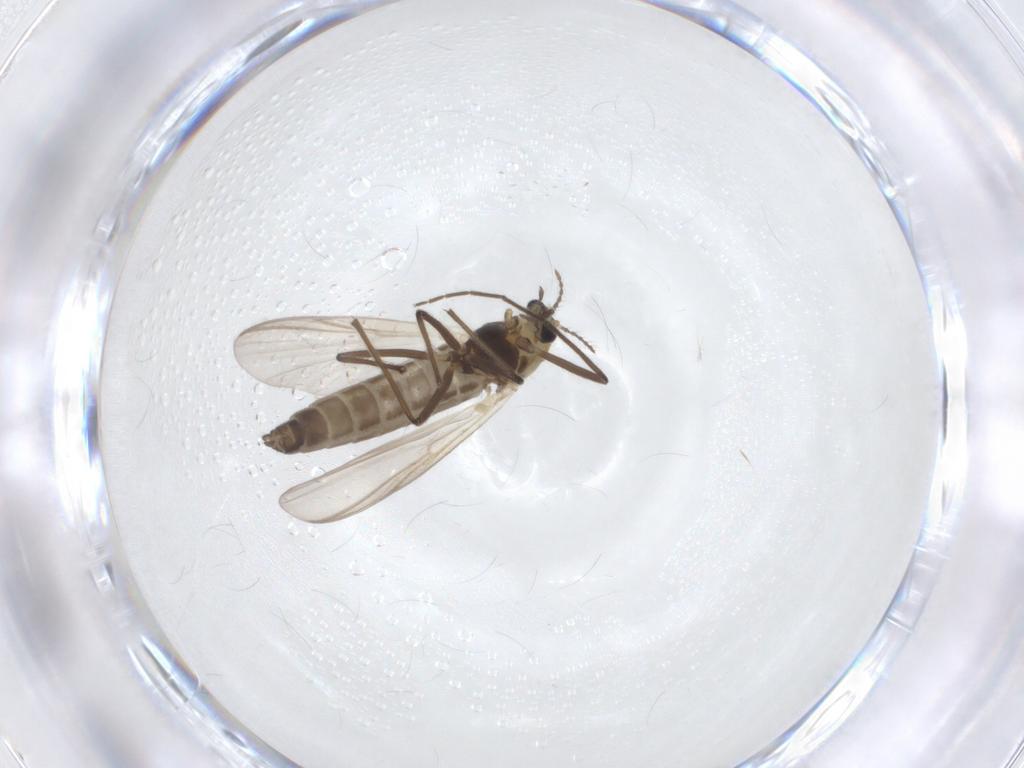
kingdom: Animalia
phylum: Arthropoda
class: Insecta
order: Diptera
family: Chironomidae
